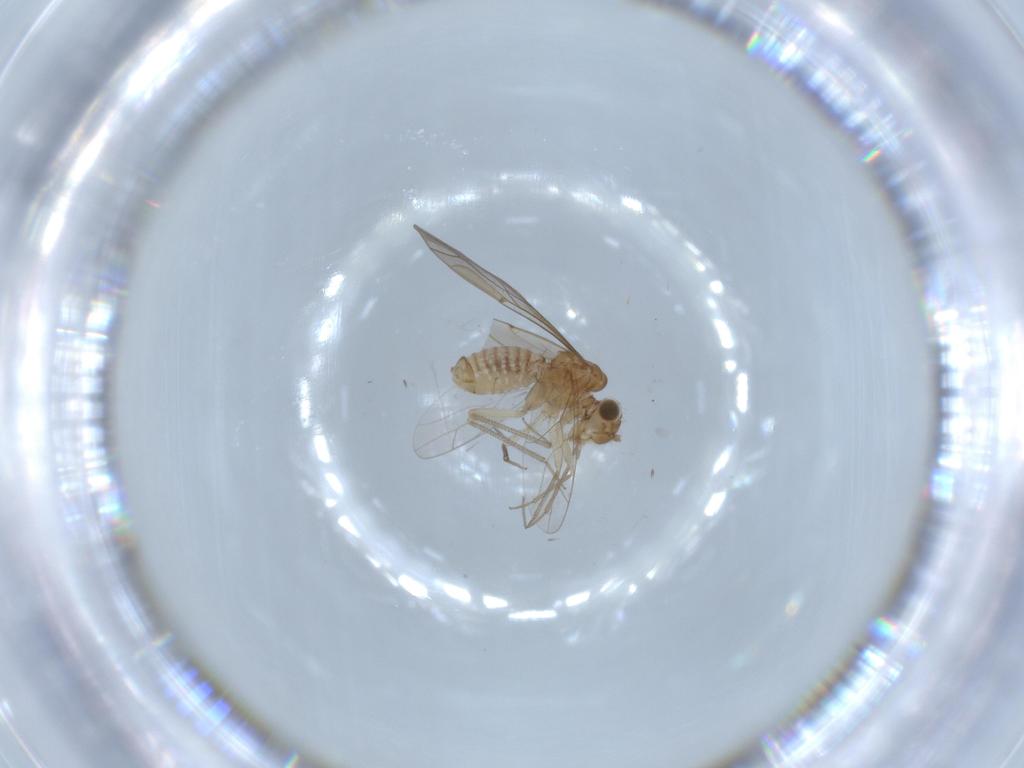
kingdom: Animalia
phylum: Arthropoda
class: Insecta
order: Psocodea
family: Lachesillidae
